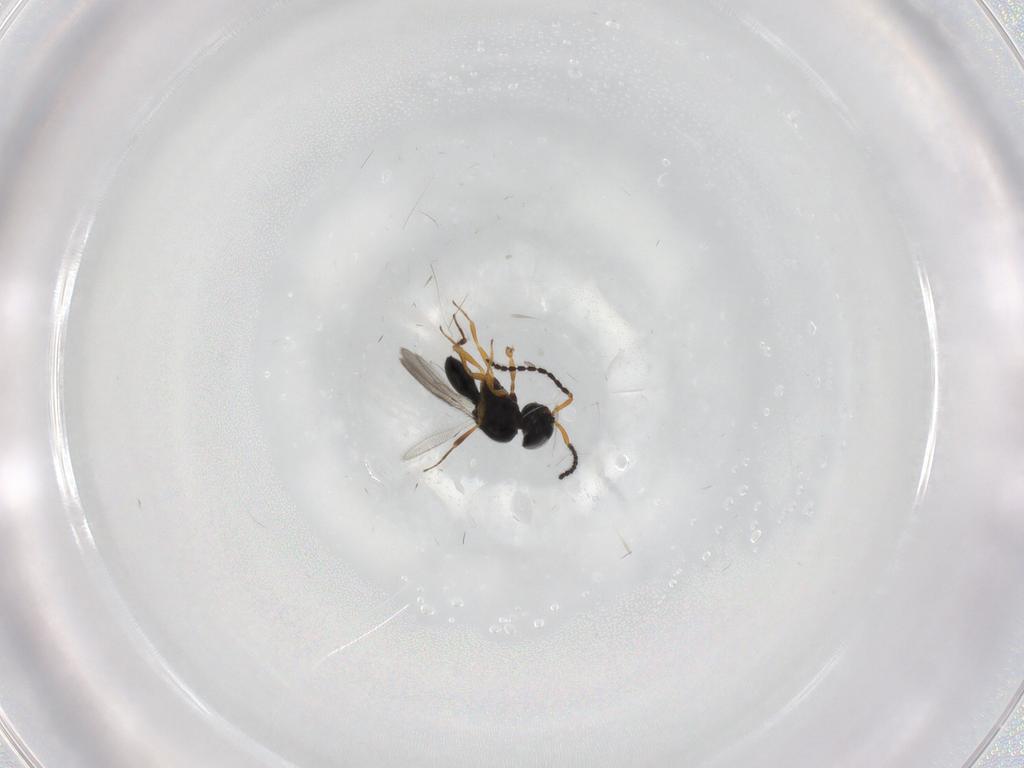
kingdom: Animalia
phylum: Arthropoda
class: Insecta
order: Hymenoptera
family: Scelionidae
